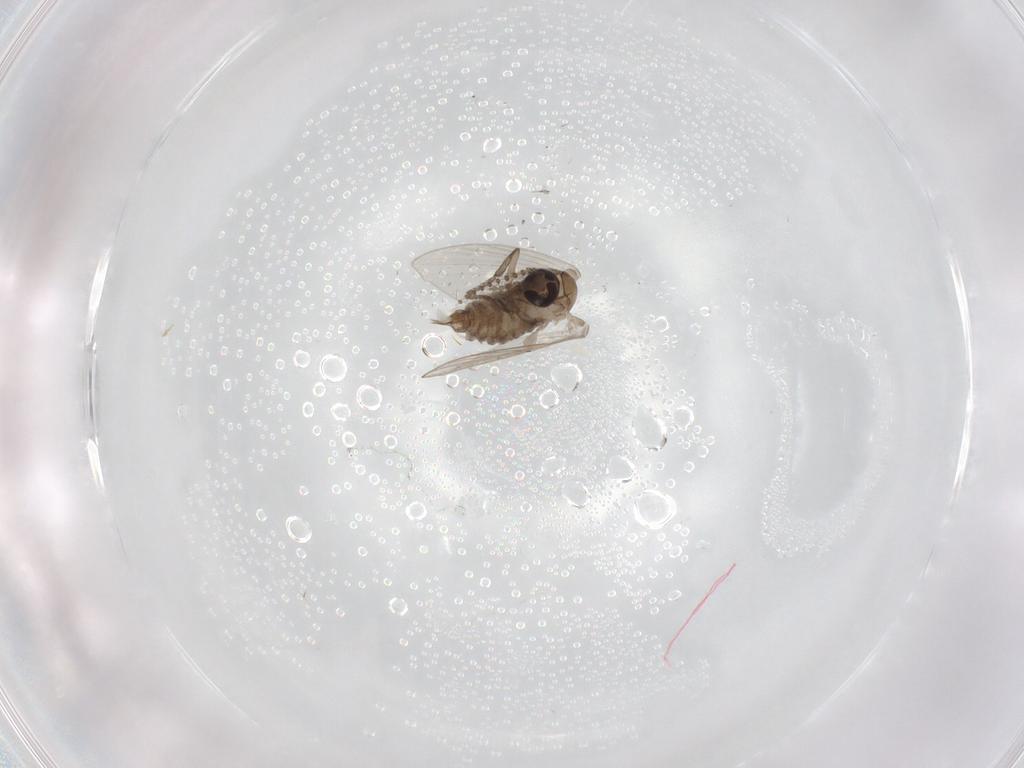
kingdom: Animalia
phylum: Arthropoda
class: Insecta
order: Diptera
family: Psychodidae
